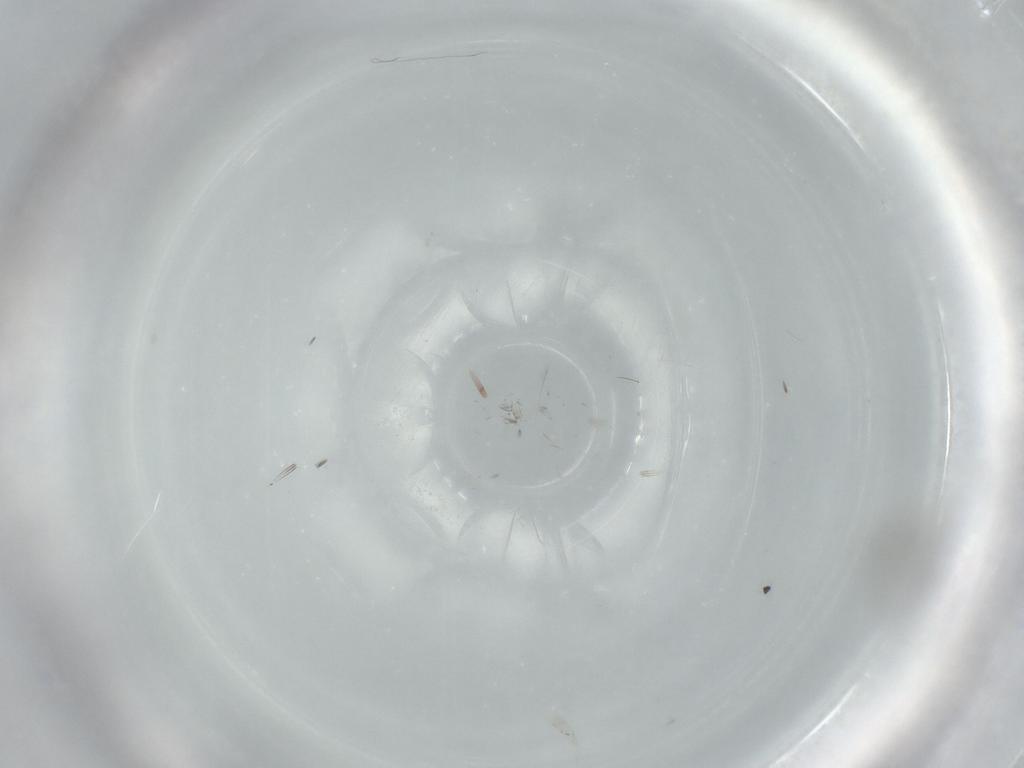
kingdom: Animalia
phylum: Arthropoda
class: Collembola
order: Poduromorpha
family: Neanuridae
